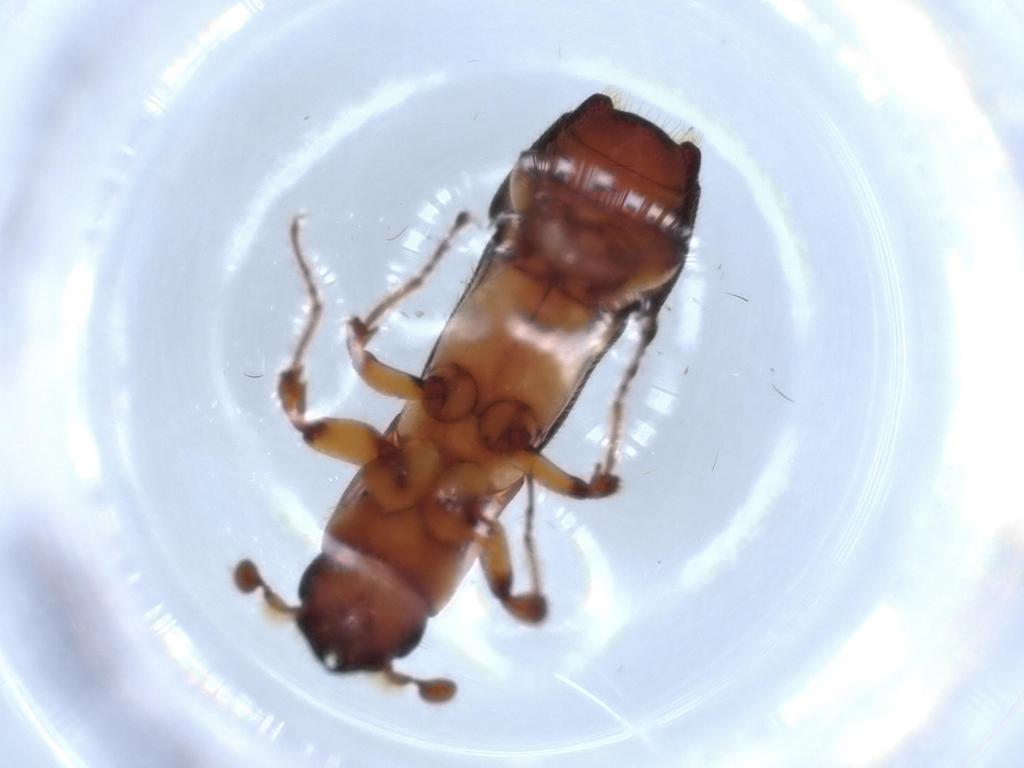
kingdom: Animalia
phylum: Arthropoda
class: Insecta
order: Coleoptera
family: Curculionidae
